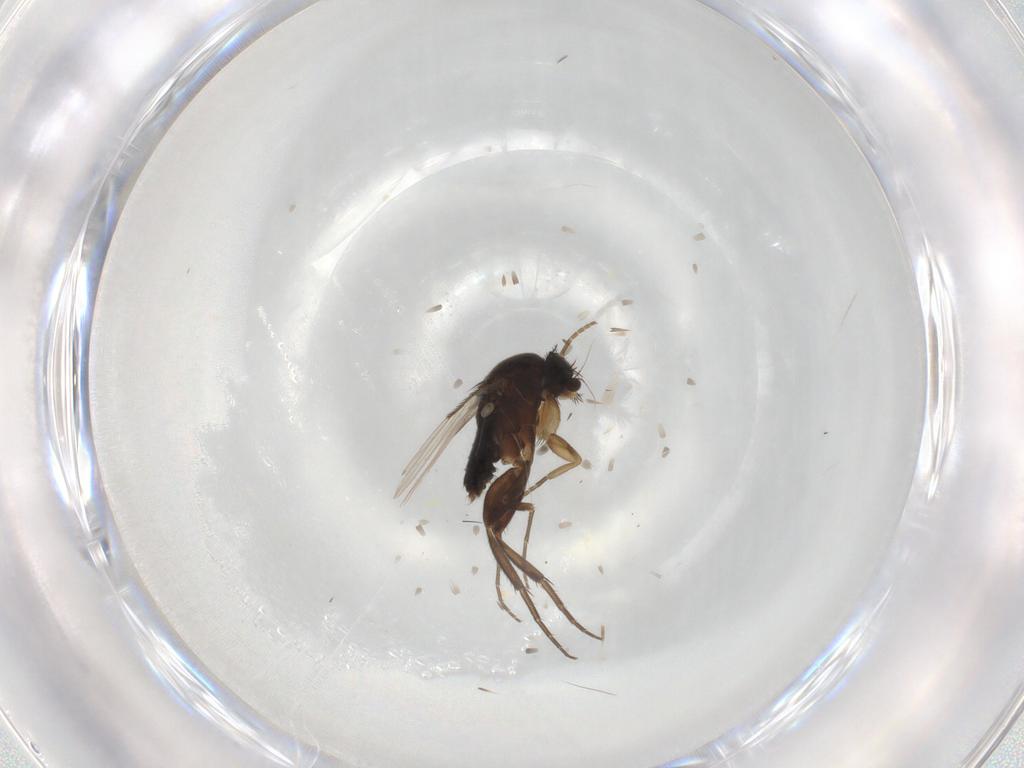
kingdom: Animalia
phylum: Arthropoda
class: Insecta
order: Diptera
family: Phoridae
